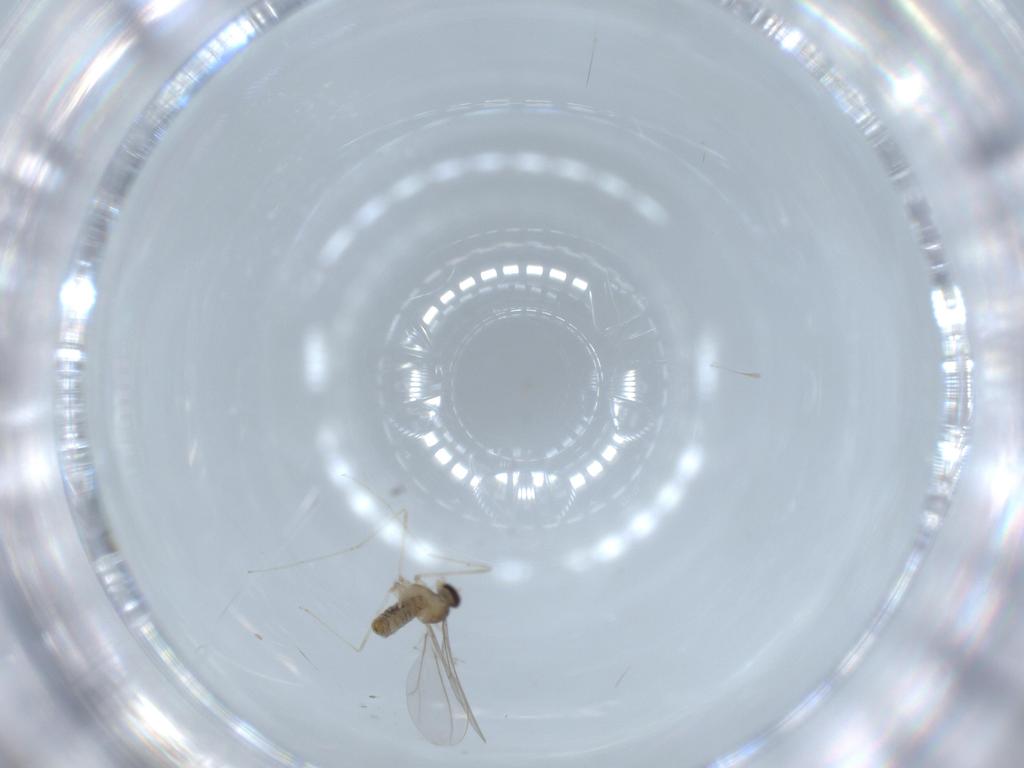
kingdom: Animalia
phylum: Arthropoda
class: Insecta
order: Diptera
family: Cecidomyiidae
